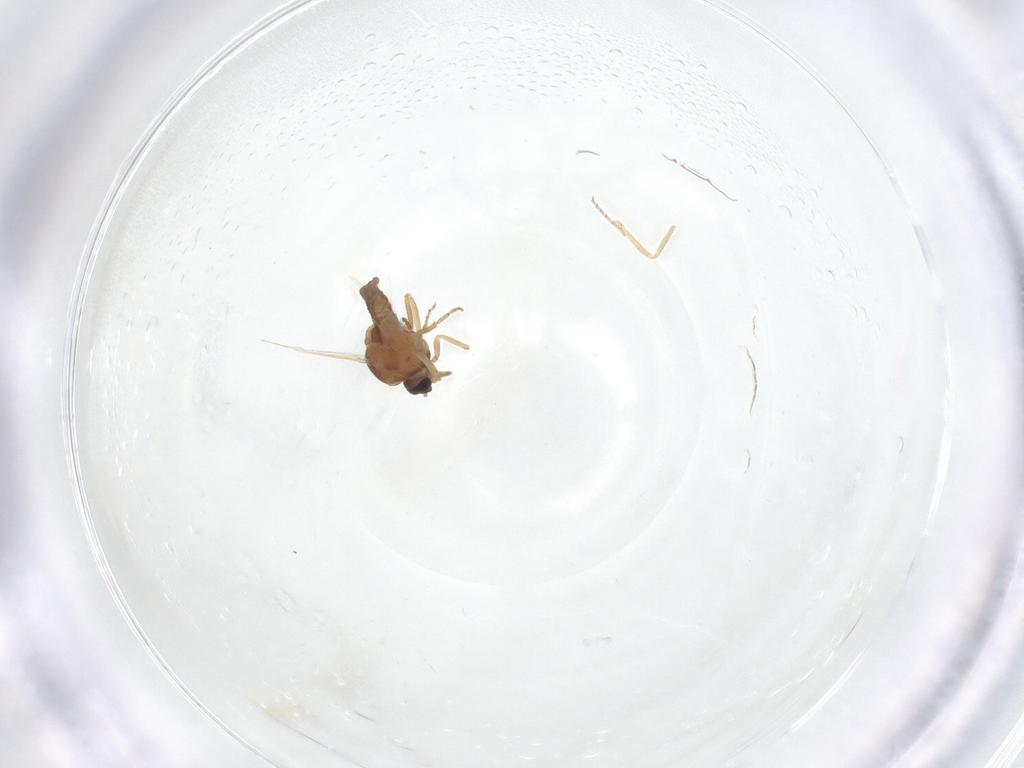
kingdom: Animalia
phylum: Arthropoda
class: Insecta
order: Diptera
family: Ceratopogonidae
